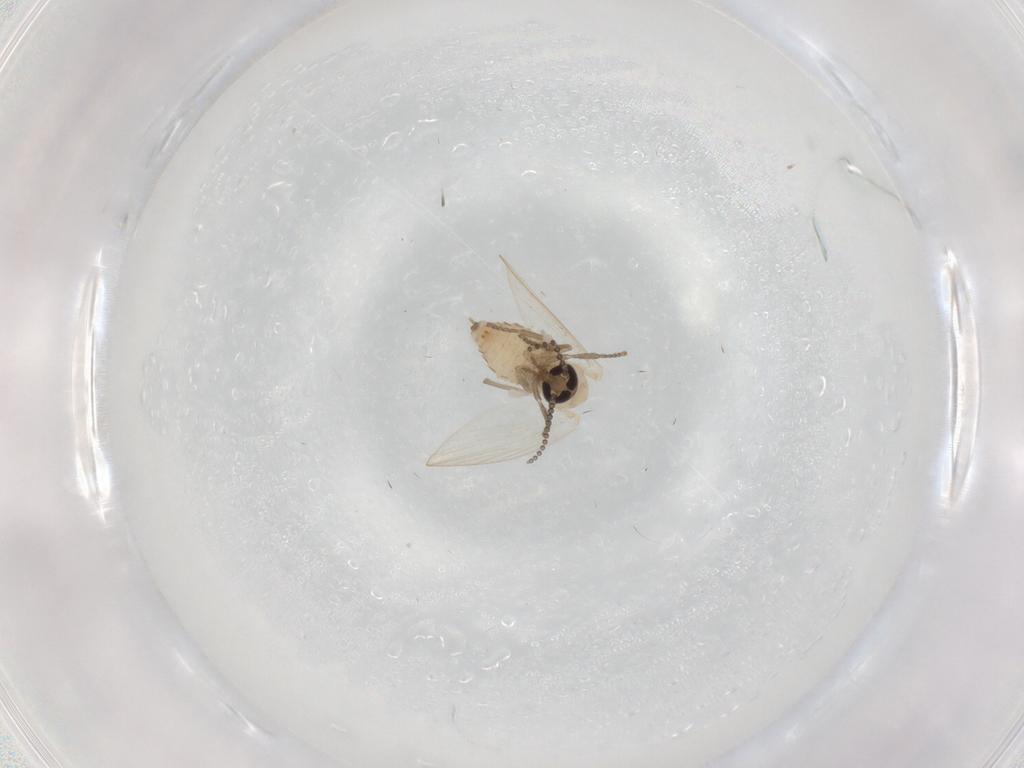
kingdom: Animalia
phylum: Arthropoda
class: Insecta
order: Diptera
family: Psychodidae
